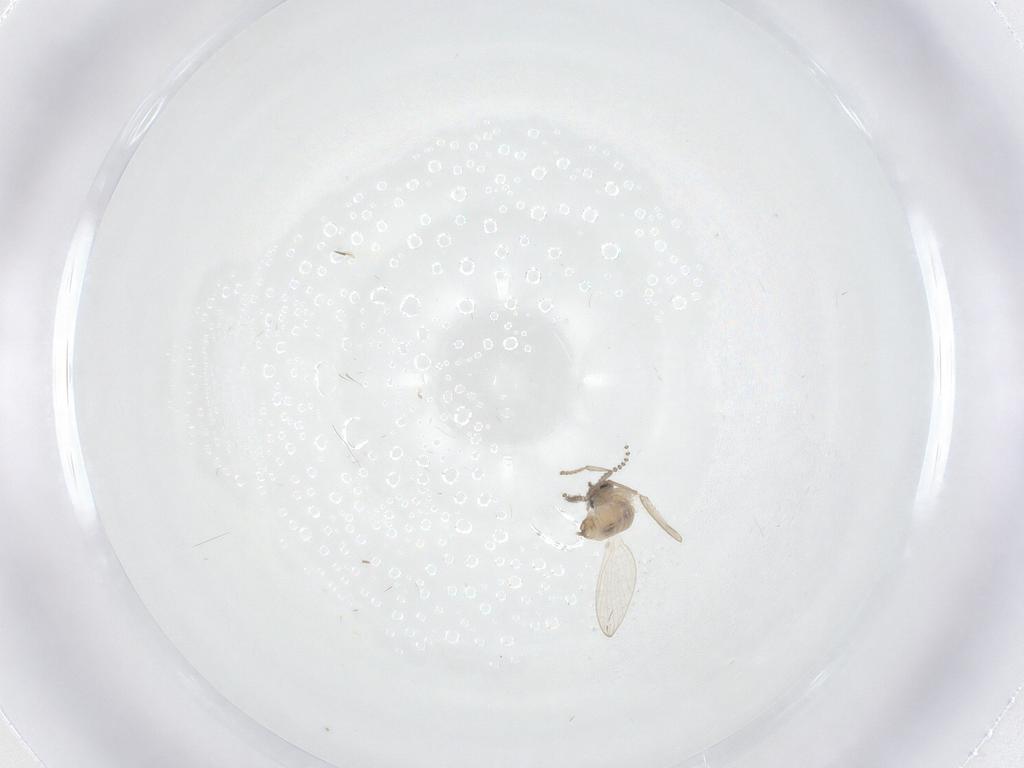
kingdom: Animalia
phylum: Arthropoda
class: Insecta
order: Diptera
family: Psychodidae
